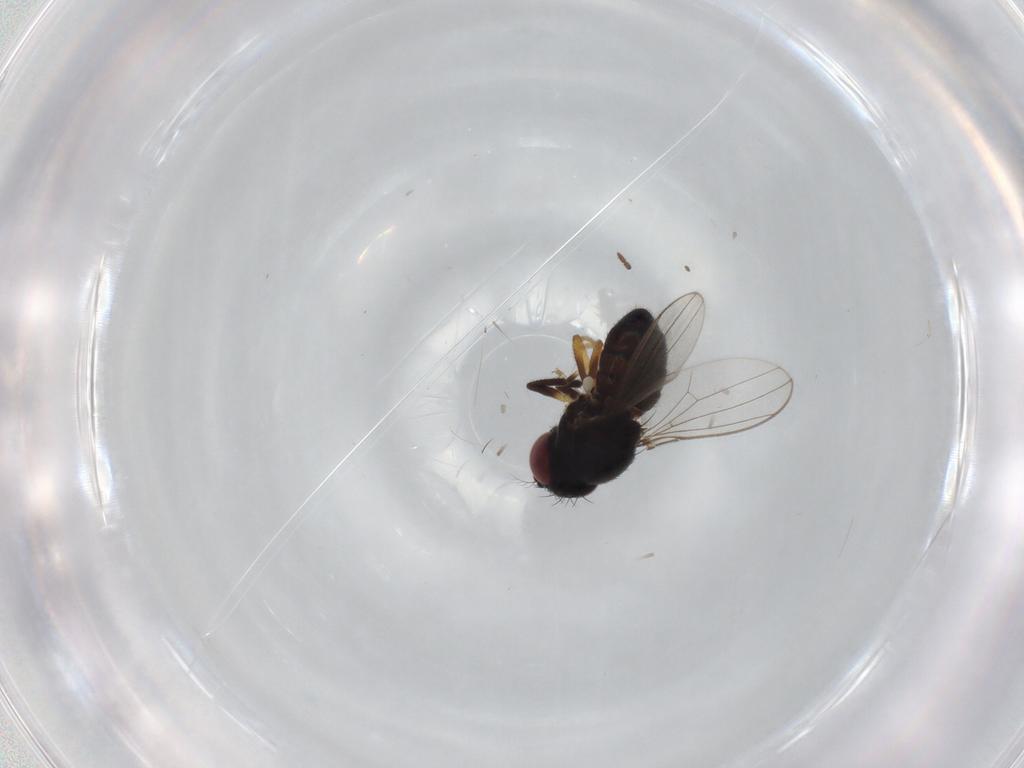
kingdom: Animalia
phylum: Arthropoda
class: Insecta
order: Diptera
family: Ephydridae
